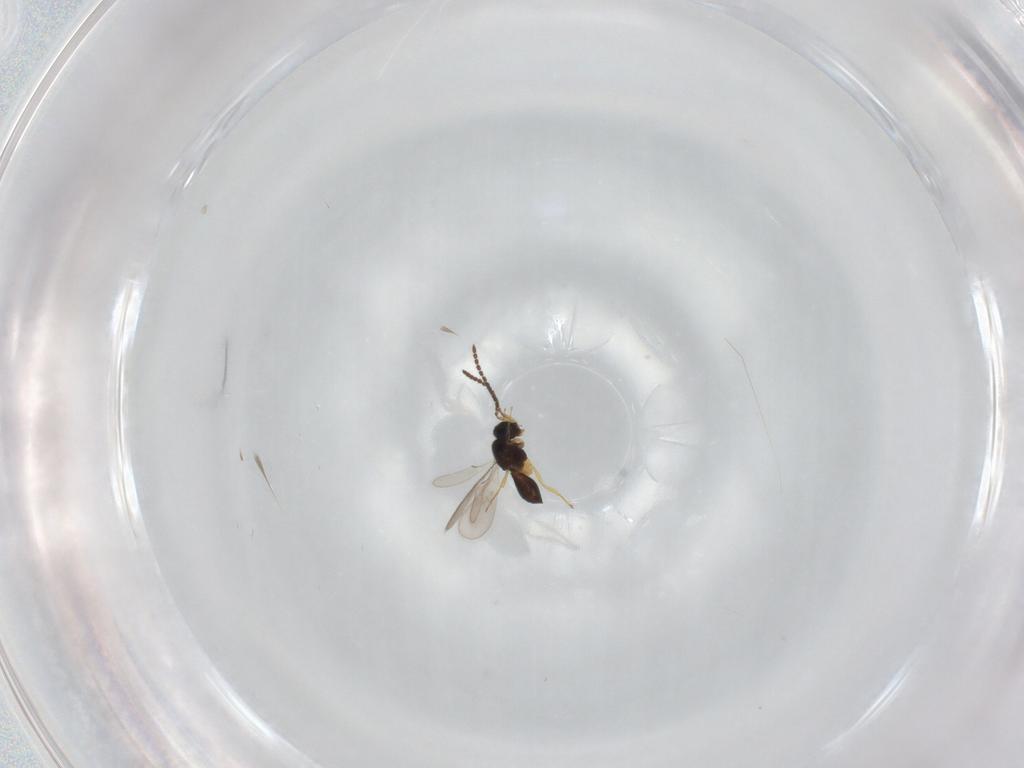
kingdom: Animalia
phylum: Arthropoda
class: Insecta
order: Hymenoptera
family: Scelionidae
